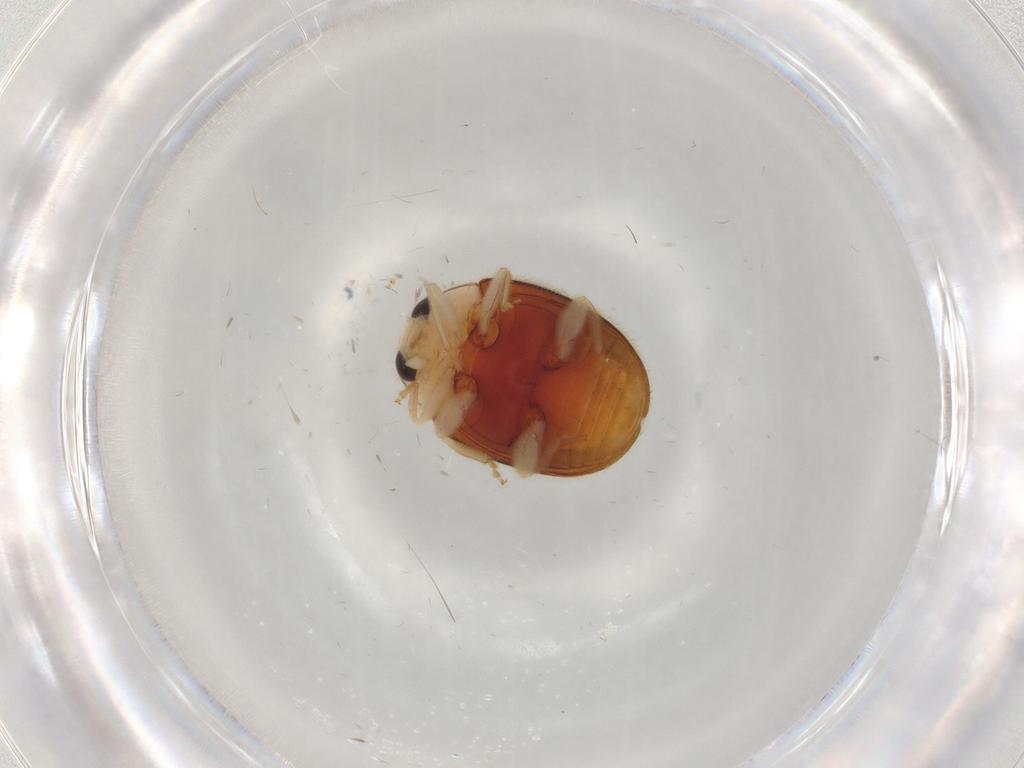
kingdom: Animalia
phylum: Arthropoda
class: Insecta
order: Coleoptera
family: Coccinellidae
